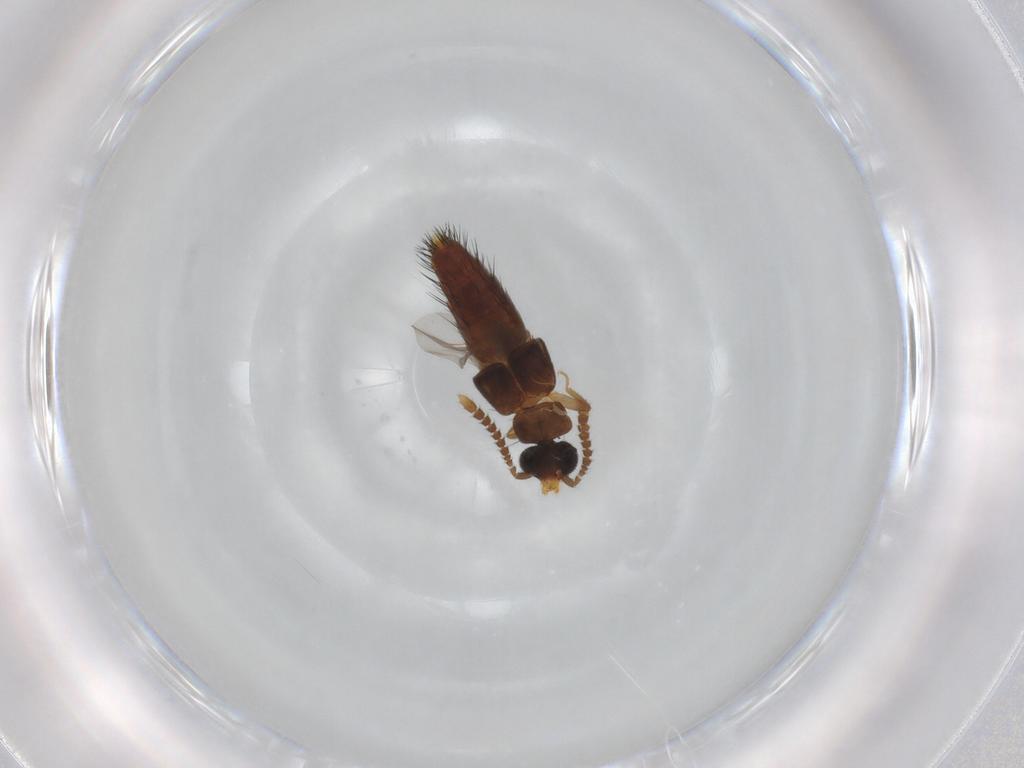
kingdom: Animalia
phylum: Arthropoda
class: Insecta
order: Coleoptera
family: Staphylinidae
